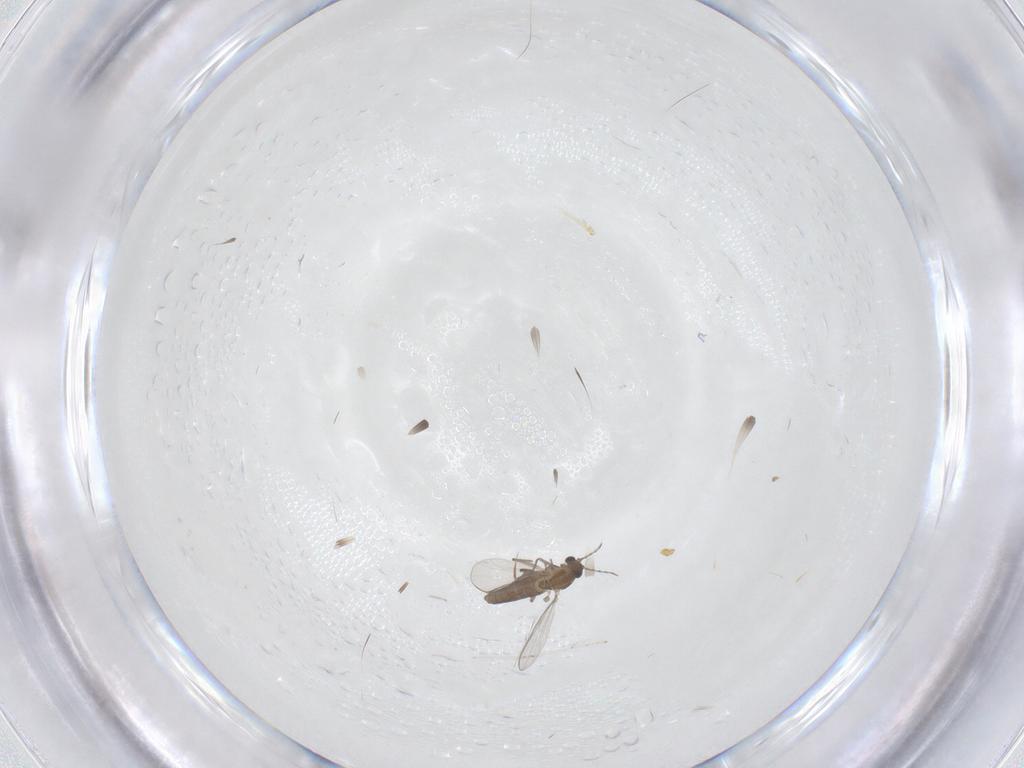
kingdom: Animalia
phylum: Arthropoda
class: Insecta
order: Diptera
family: Cecidomyiidae
